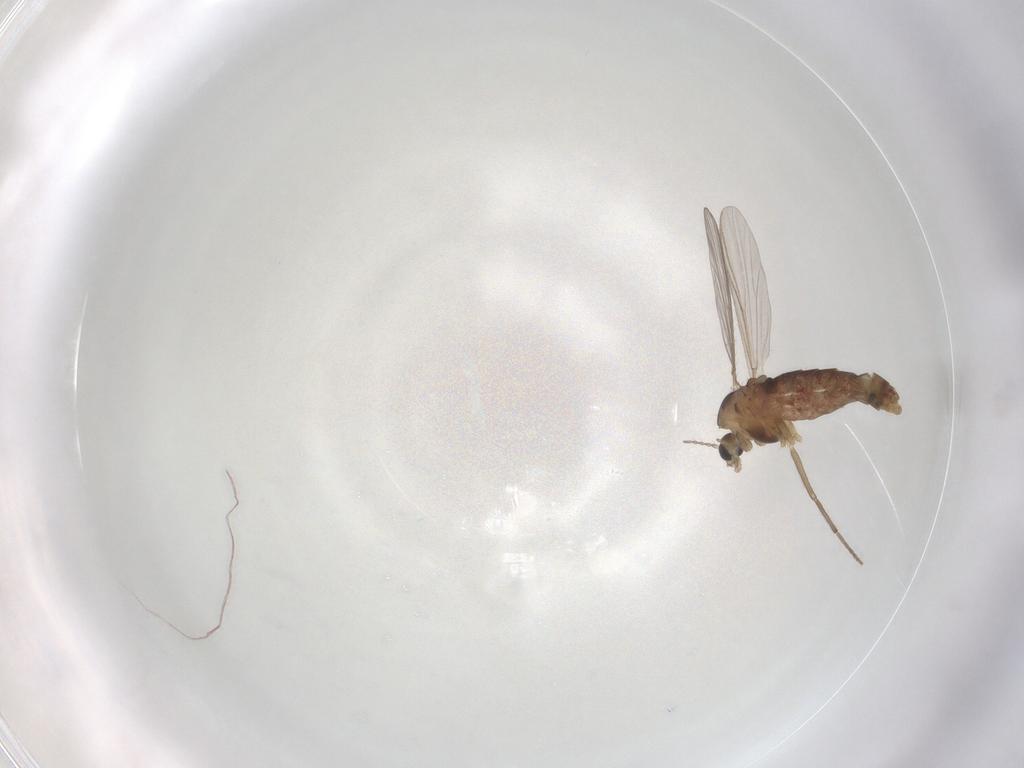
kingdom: Animalia
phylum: Arthropoda
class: Insecta
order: Diptera
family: Chironomidae
